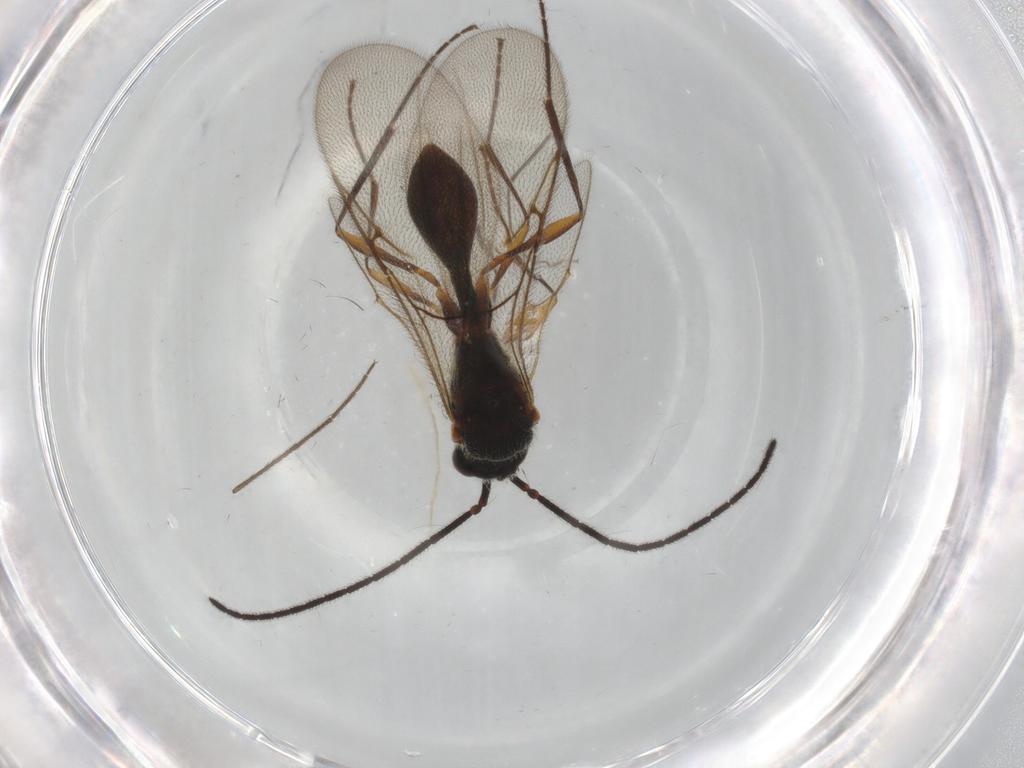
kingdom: Animalia
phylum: Arthropoda
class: Insecta
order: Hymenoptera
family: Diapriidae
